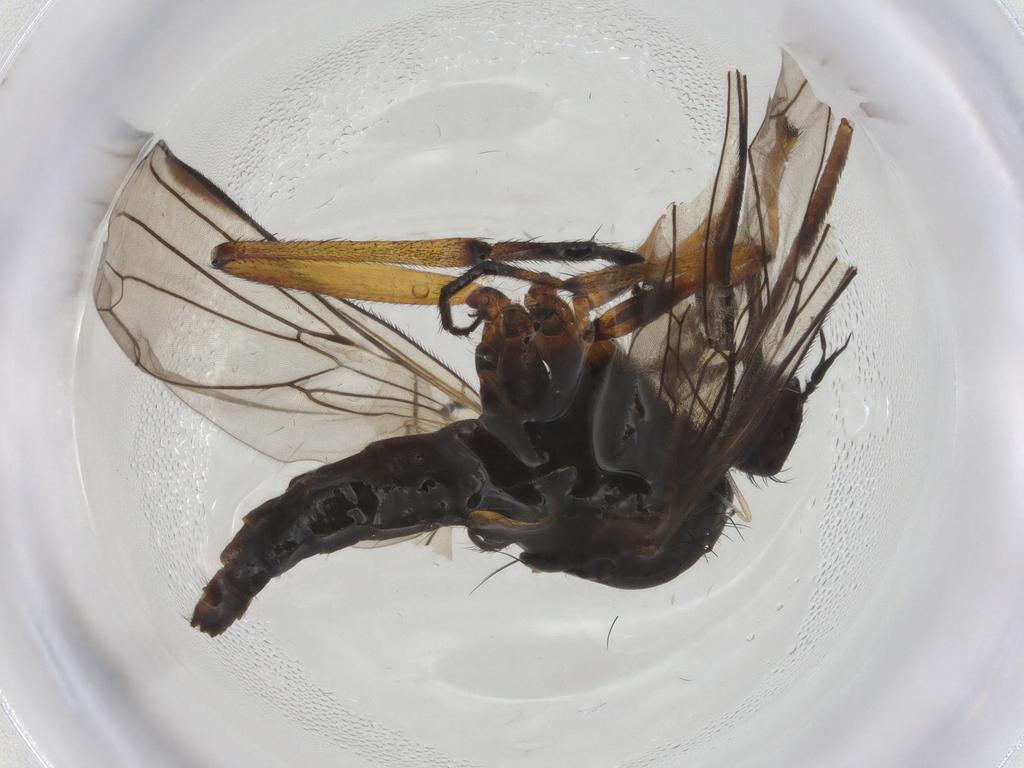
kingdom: Animalia
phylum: Arthropoda
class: Insecta
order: Diptera
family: Empididae
